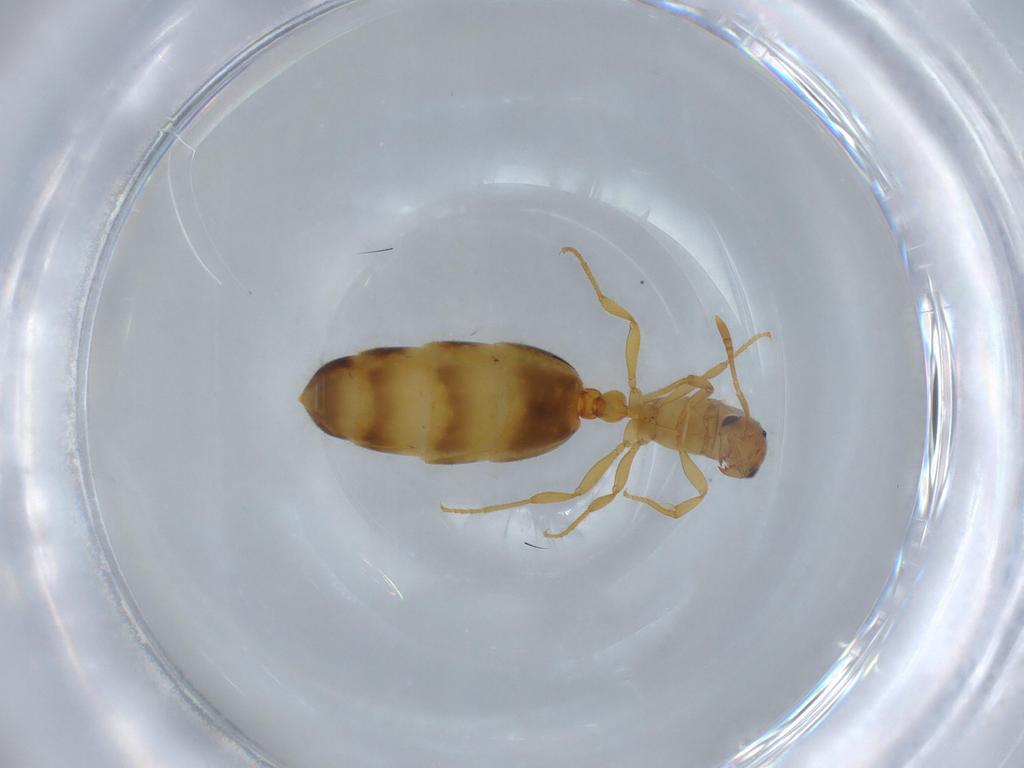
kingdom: Animalia
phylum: Arthropoda
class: Insecta
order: Hymenoptera
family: Formicidae
